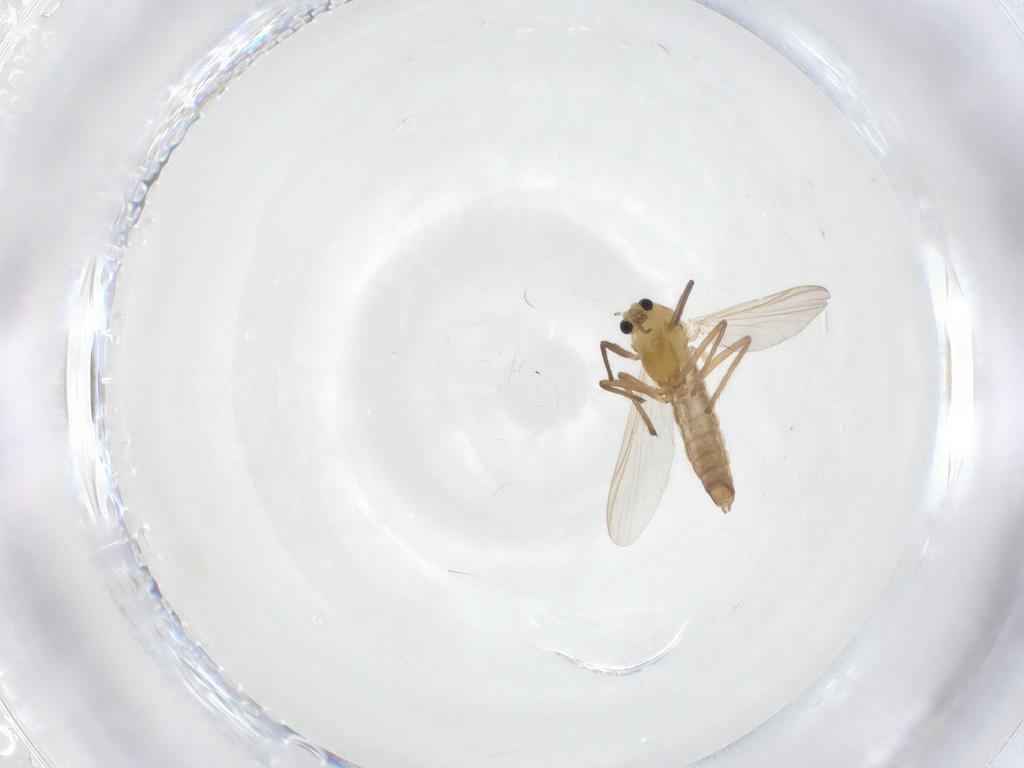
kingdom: Animalia
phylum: Arthropoda
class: Insecta
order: Diptera
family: Chironomidae
